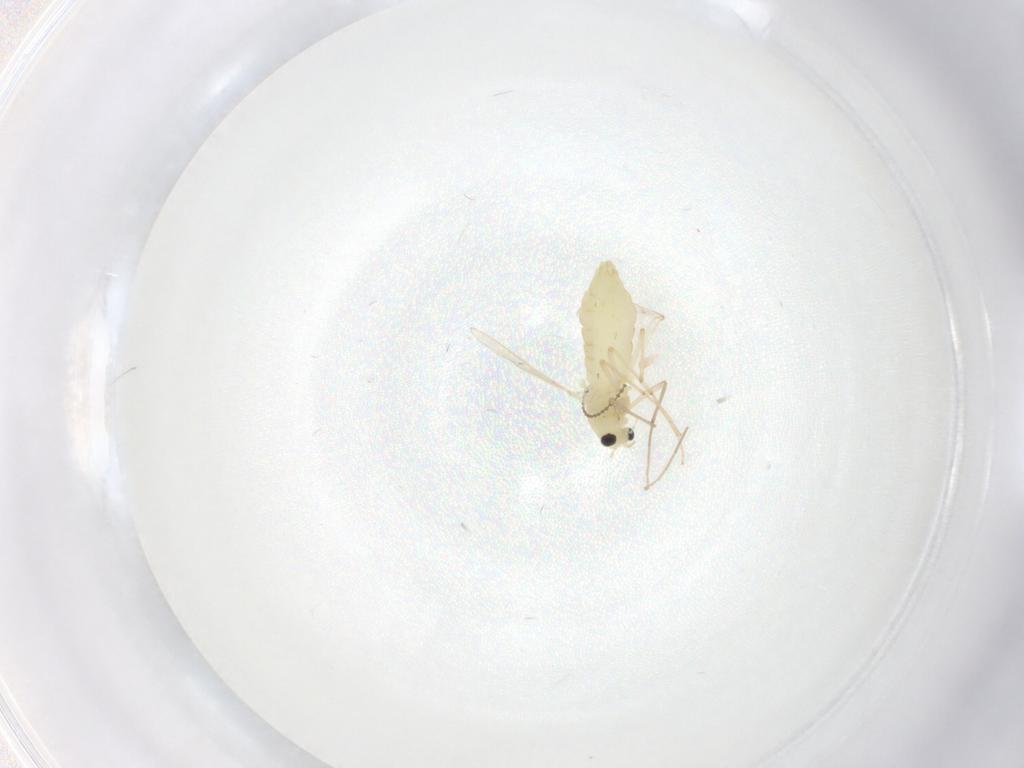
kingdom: Animalia
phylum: Arthropoda
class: Insecta
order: Diptera
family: Chironomidae
